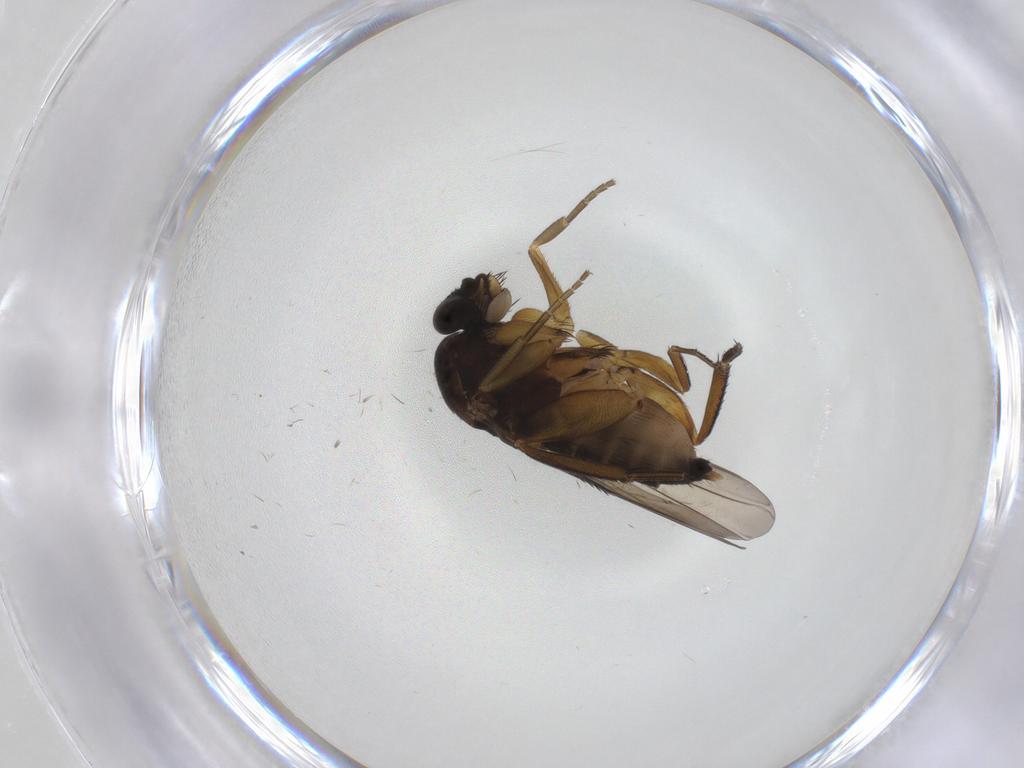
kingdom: Animalia
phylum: Arthropoda
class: Insecta
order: Diptera
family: Phoridae
